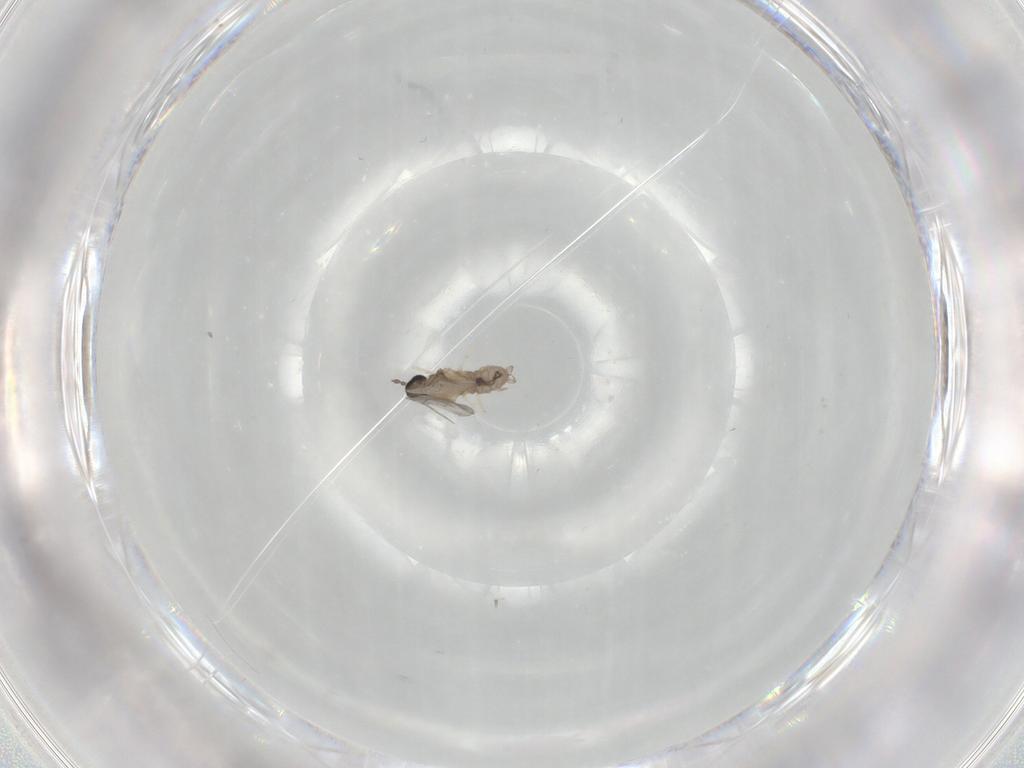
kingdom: Animalia
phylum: Arthropoda
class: Insecta
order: Diptera
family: Cecidomyiidae
